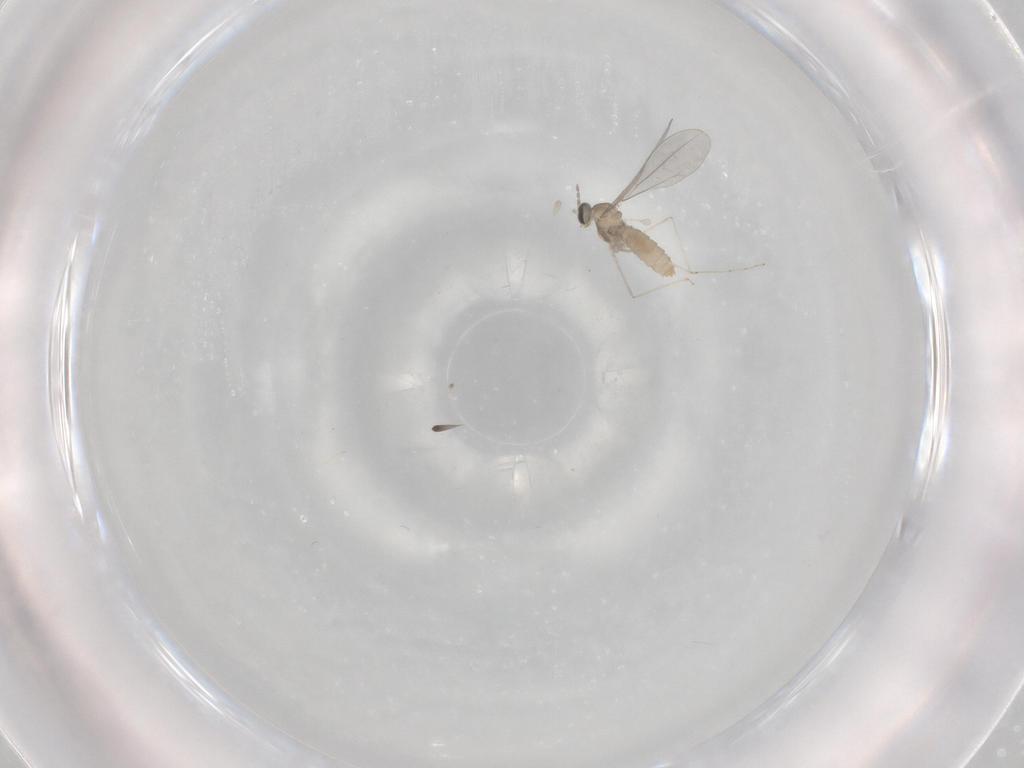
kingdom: Animalia
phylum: Arthropoda
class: Insecta
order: Diptera
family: Cecidomyiidae
